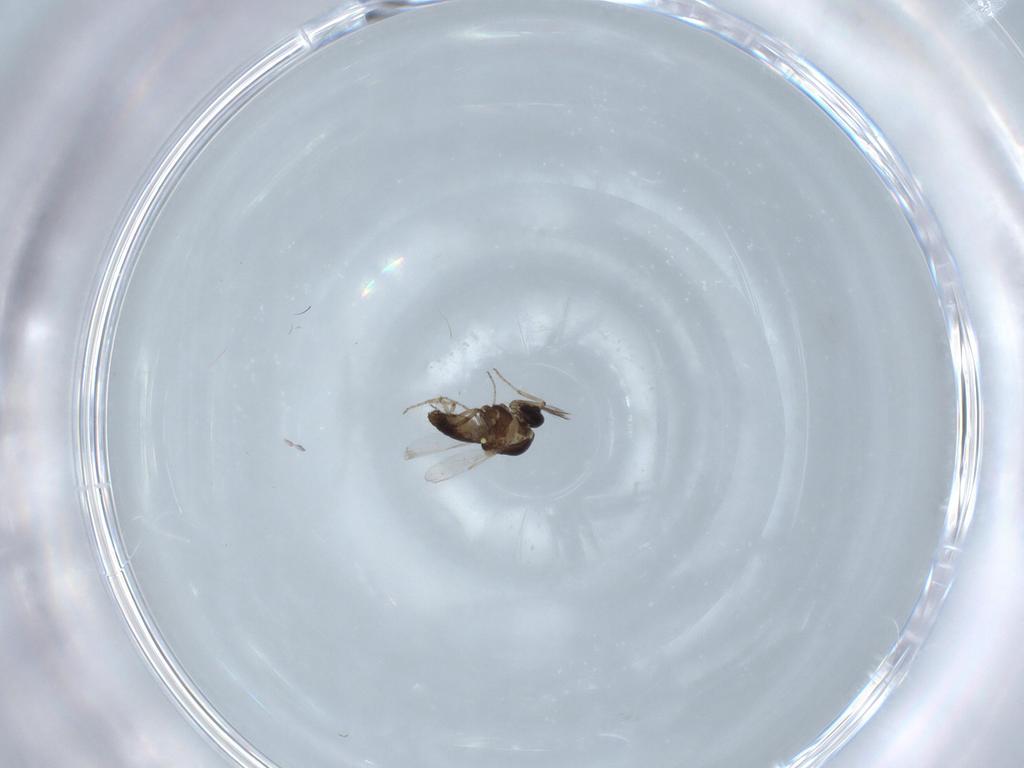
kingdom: Animalia
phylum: Arthropoda
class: Insecta
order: Diptera
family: Ceratopogonidae
